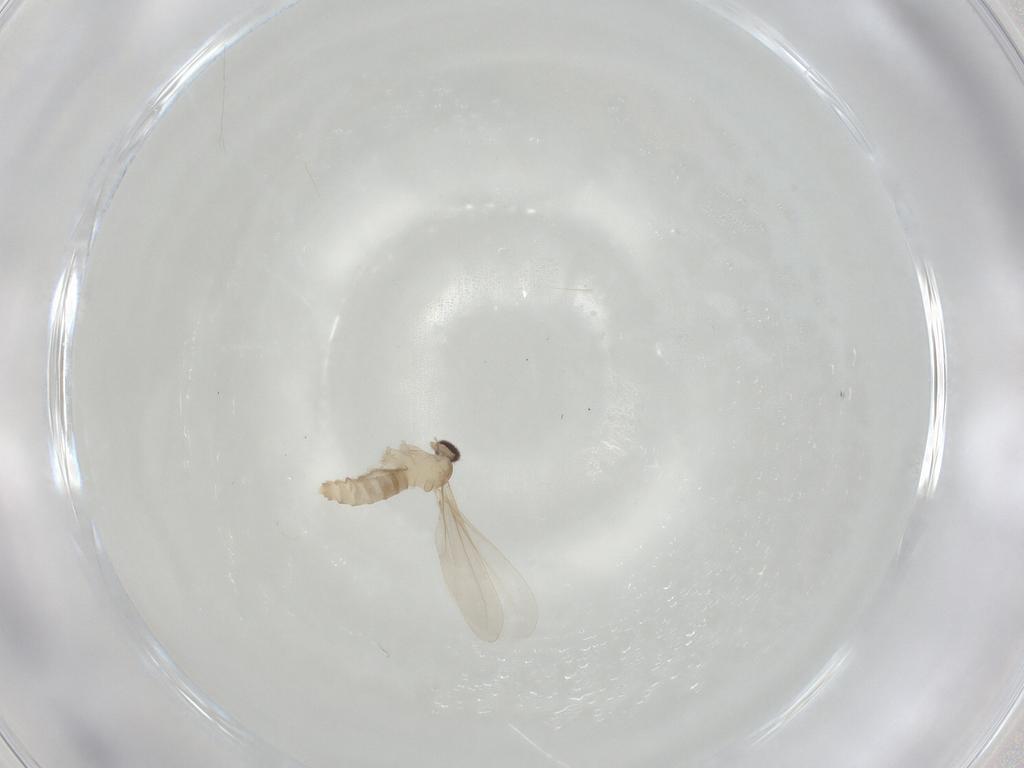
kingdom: Animalia
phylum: Arthropoda
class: Insecta
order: Diptera
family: Cecidomyiidae
